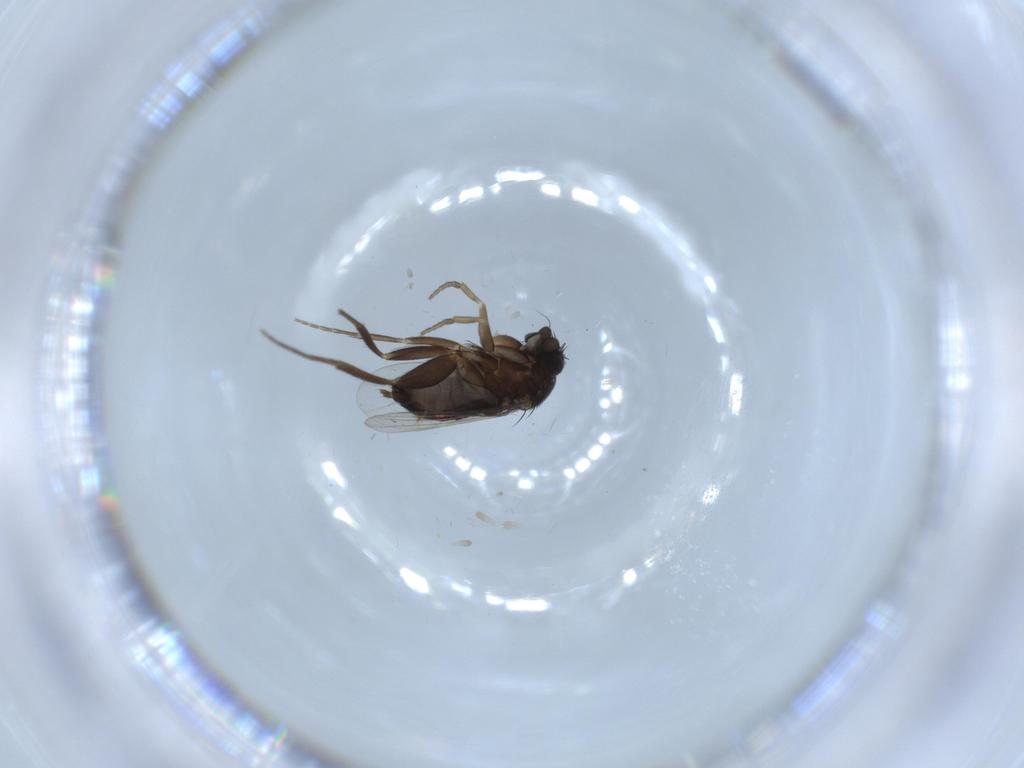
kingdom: Animalia
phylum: Arthropoda
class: Insecta
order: Diptera
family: Phoridae
